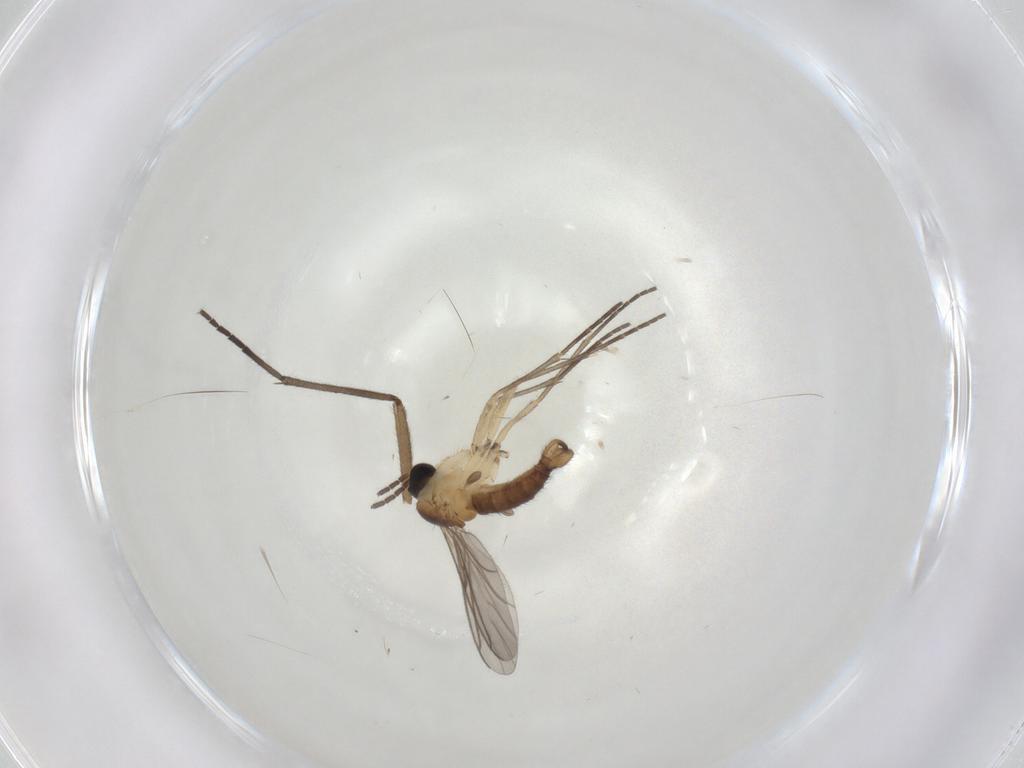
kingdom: Animalia
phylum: Arthropoda
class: Insecta
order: Diptera
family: Sciaridae
